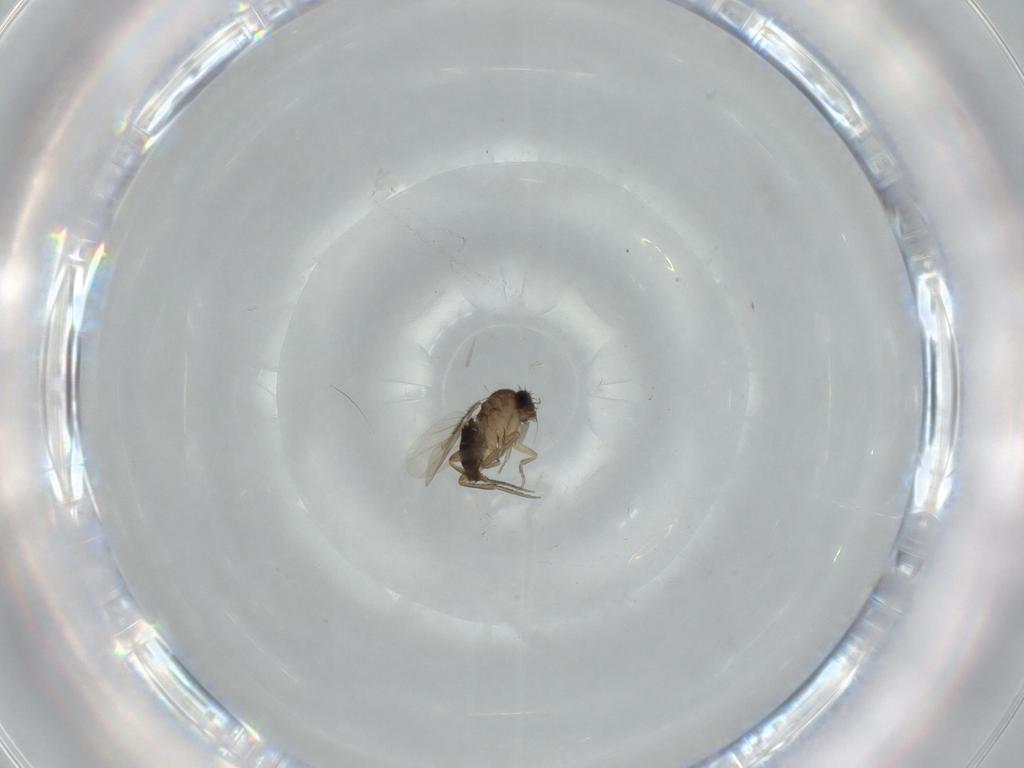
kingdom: Animalia
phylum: Arthropoda
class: Insecta
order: Diptera
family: Phoridae
